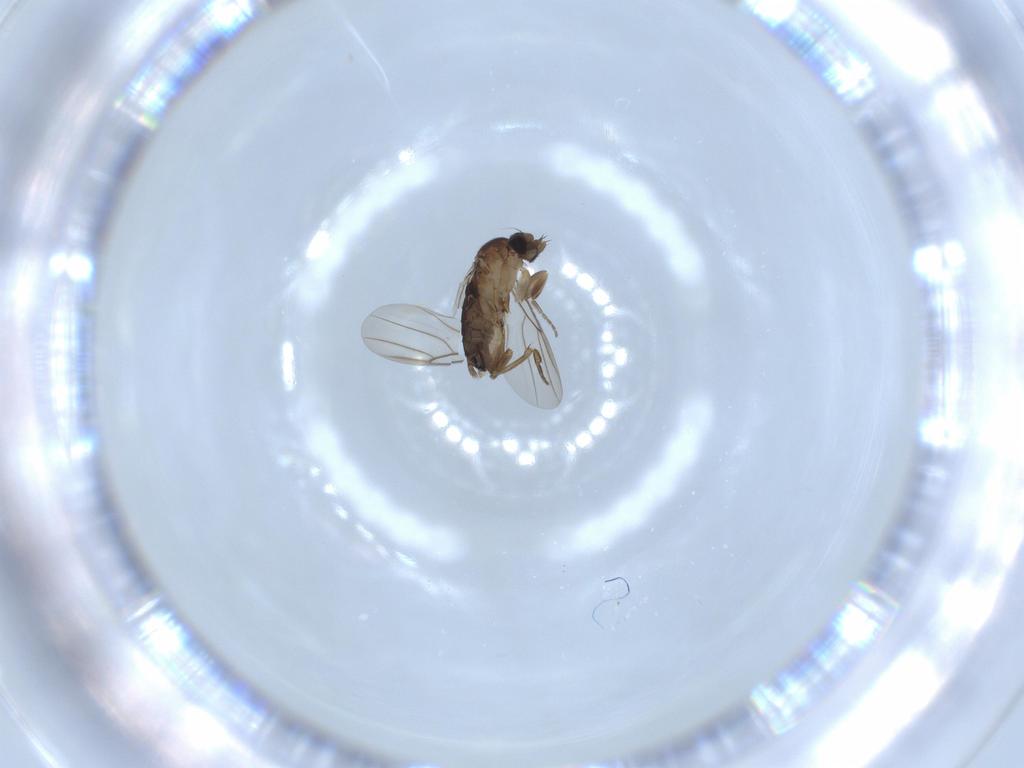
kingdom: Animalia
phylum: Arthropoda
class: Insecta
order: Diptera
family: Phoridae
